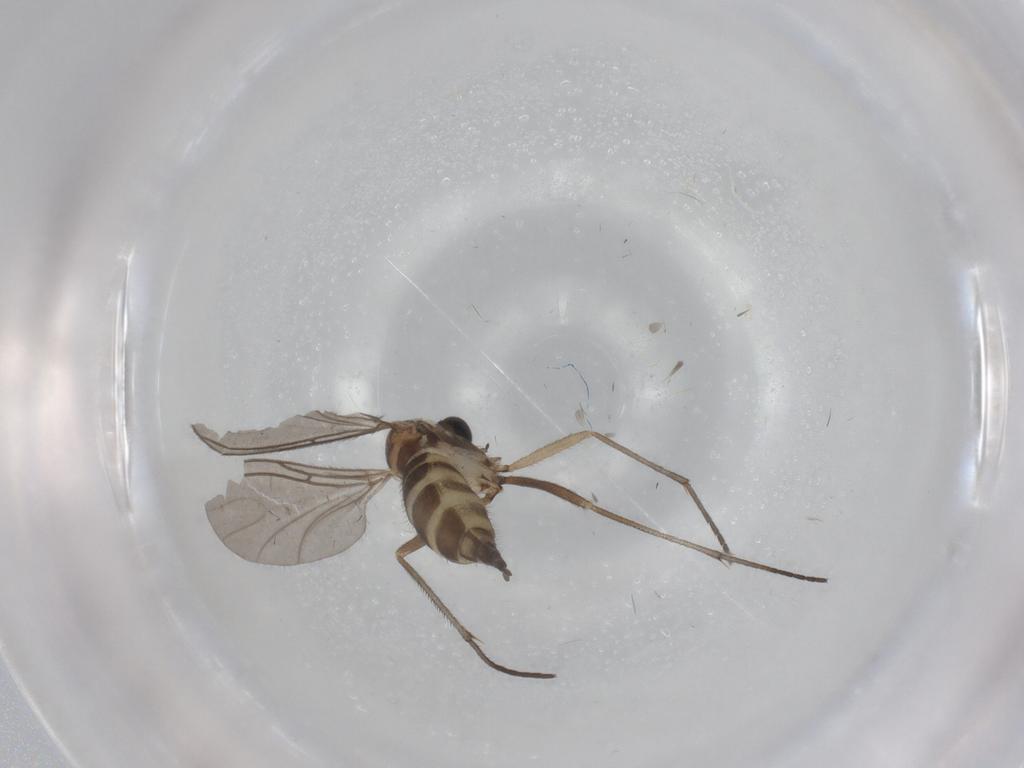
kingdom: Animalia
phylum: Arthropoda
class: Insecta
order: Diptera
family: Sciaridae
